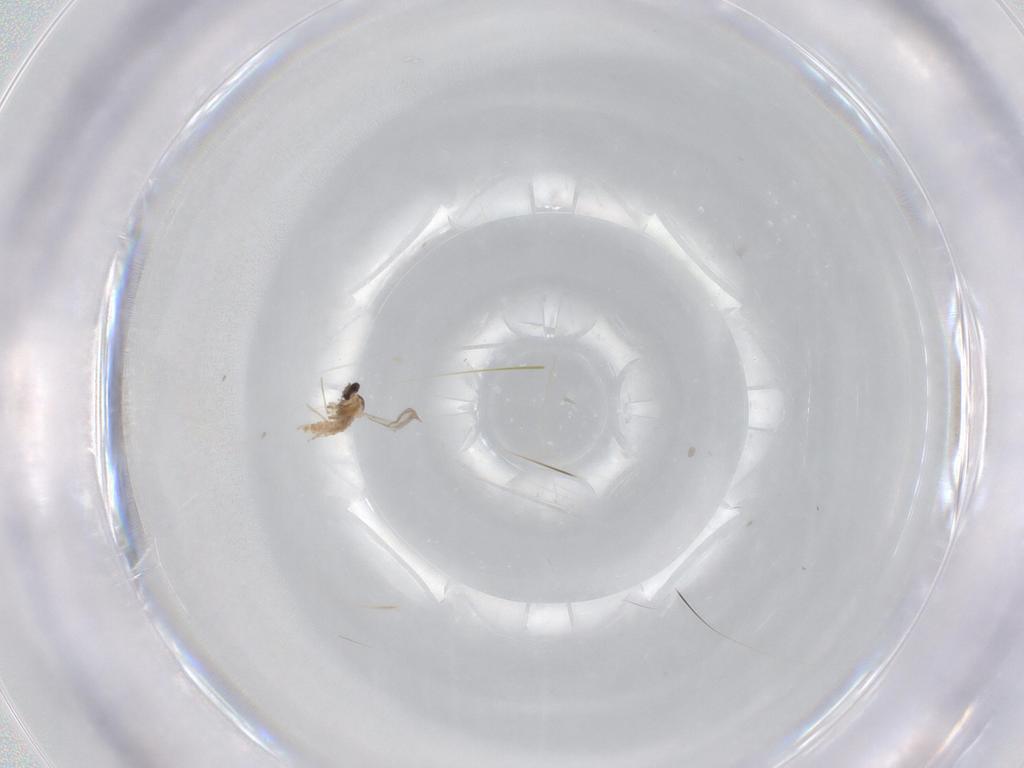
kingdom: Animalia
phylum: Arthropoda
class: Insecta
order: Diptera
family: Cecidomyiidae
